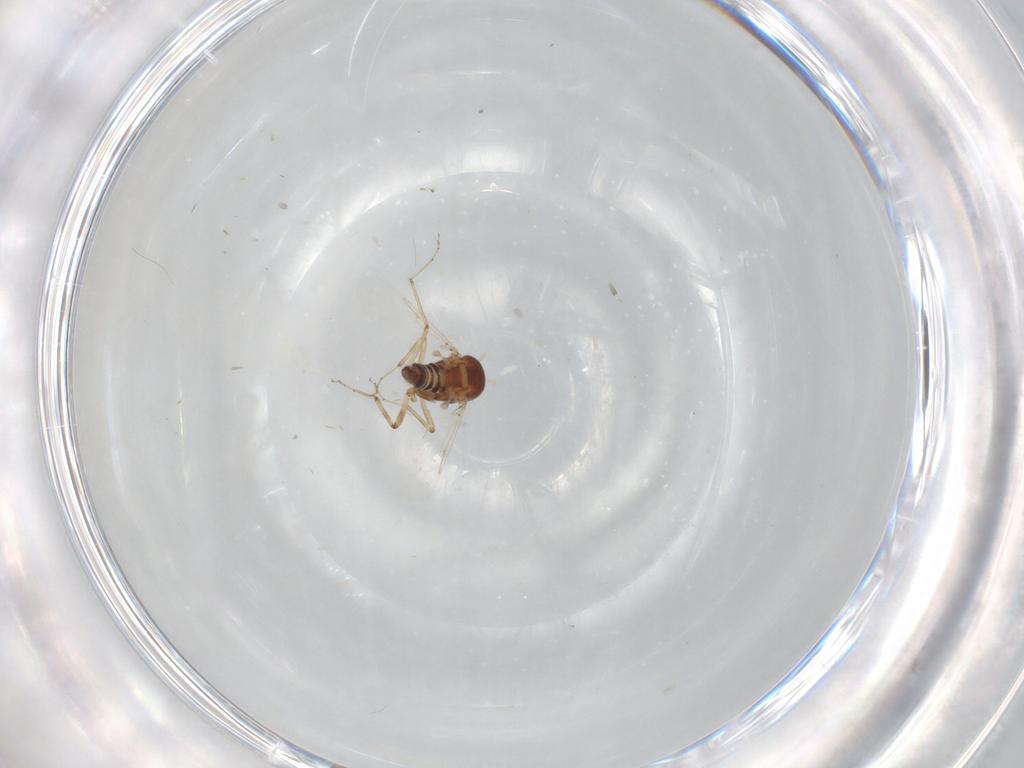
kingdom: Animalia
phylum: Arthropoda
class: Insecta
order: Diptera
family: Ceratopogonidae
